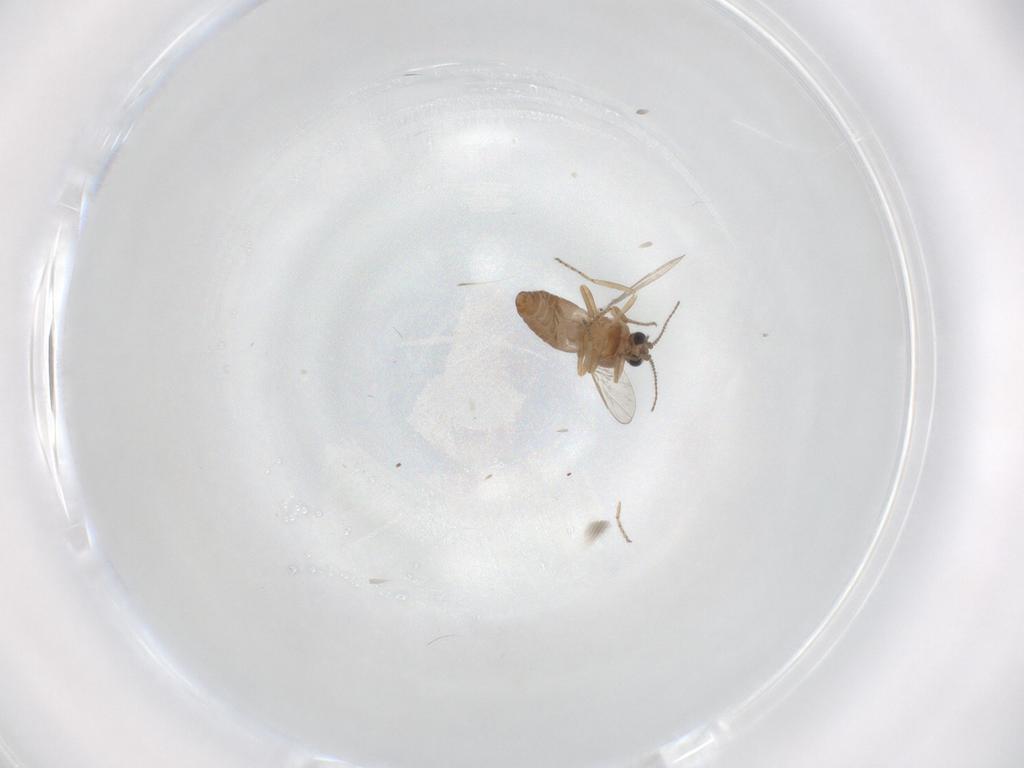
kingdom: Animalia
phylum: Arthropoda
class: Insecta
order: Diptera
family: Ceratopogonidae
